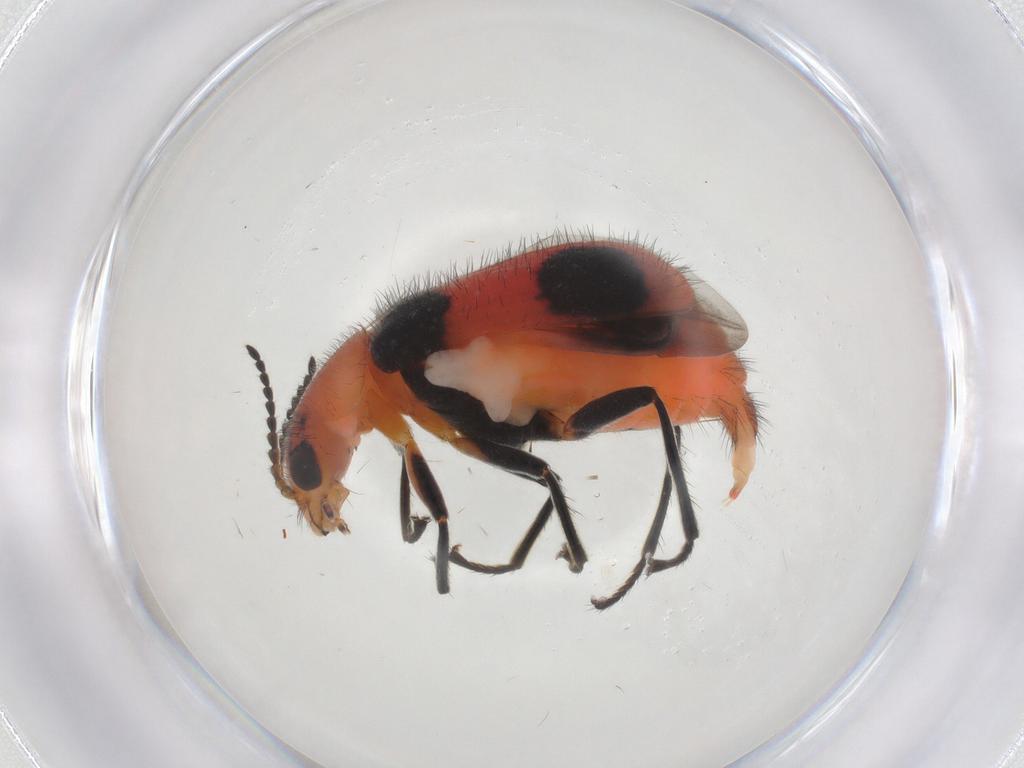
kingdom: Animalia
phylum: Arthropoda
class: Insecta
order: Coleoptera
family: Melyridae
